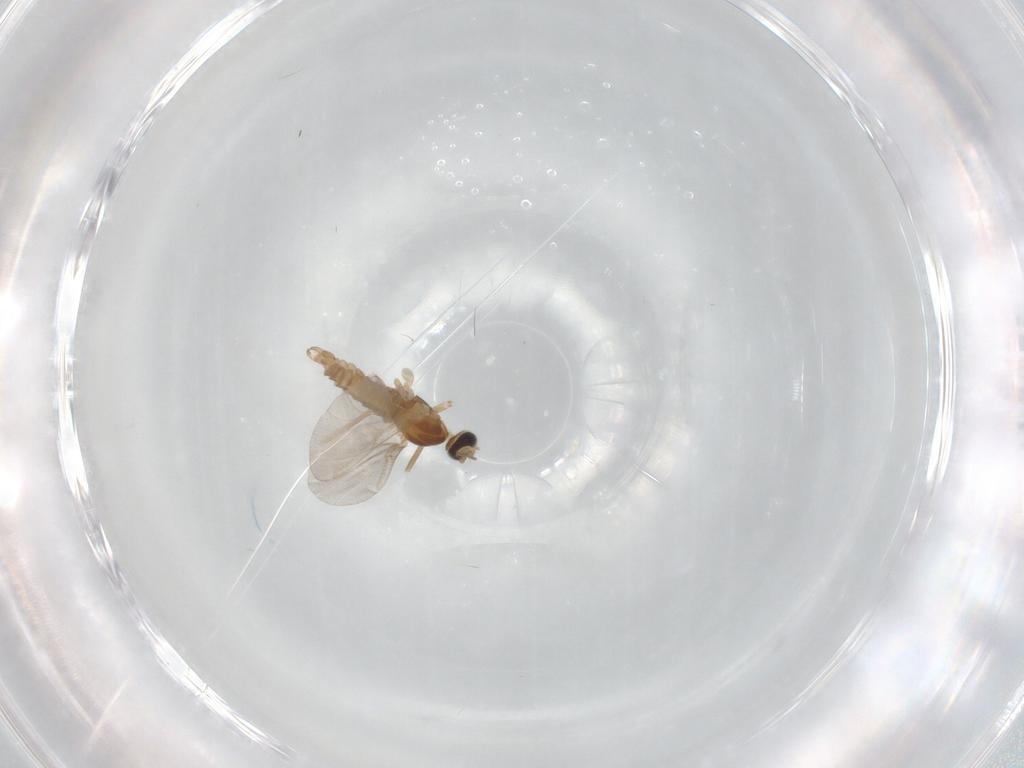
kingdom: Animalia
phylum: Arthropoda
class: Insecta
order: Diptera
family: Cecidomyiidae
